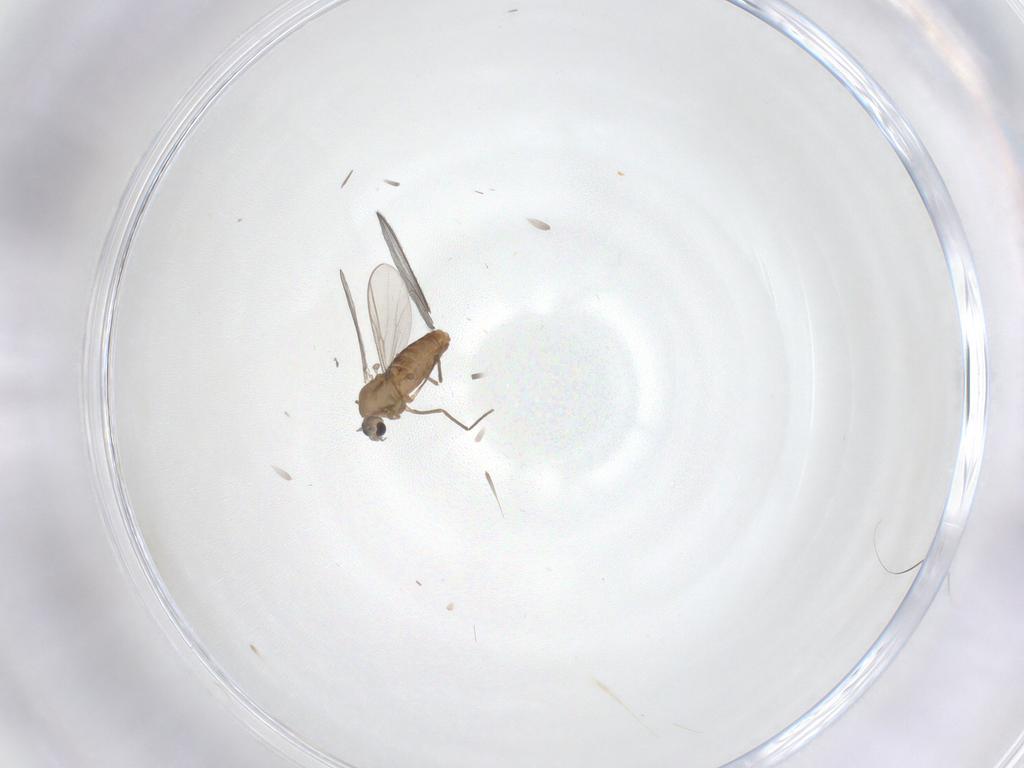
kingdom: Animalia
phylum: Arthropoda
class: Insecta
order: Diptera
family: Chironomidae
